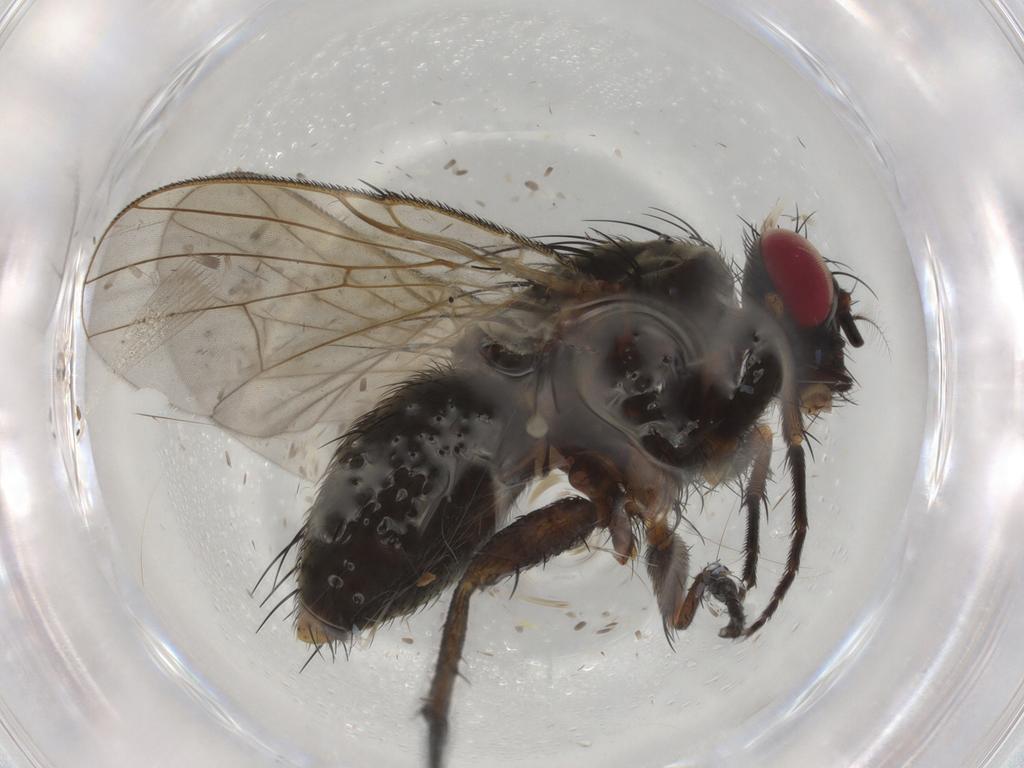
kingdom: Animalia
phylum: Arthropoda
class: Insecta
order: Diptera
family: Muscidae
